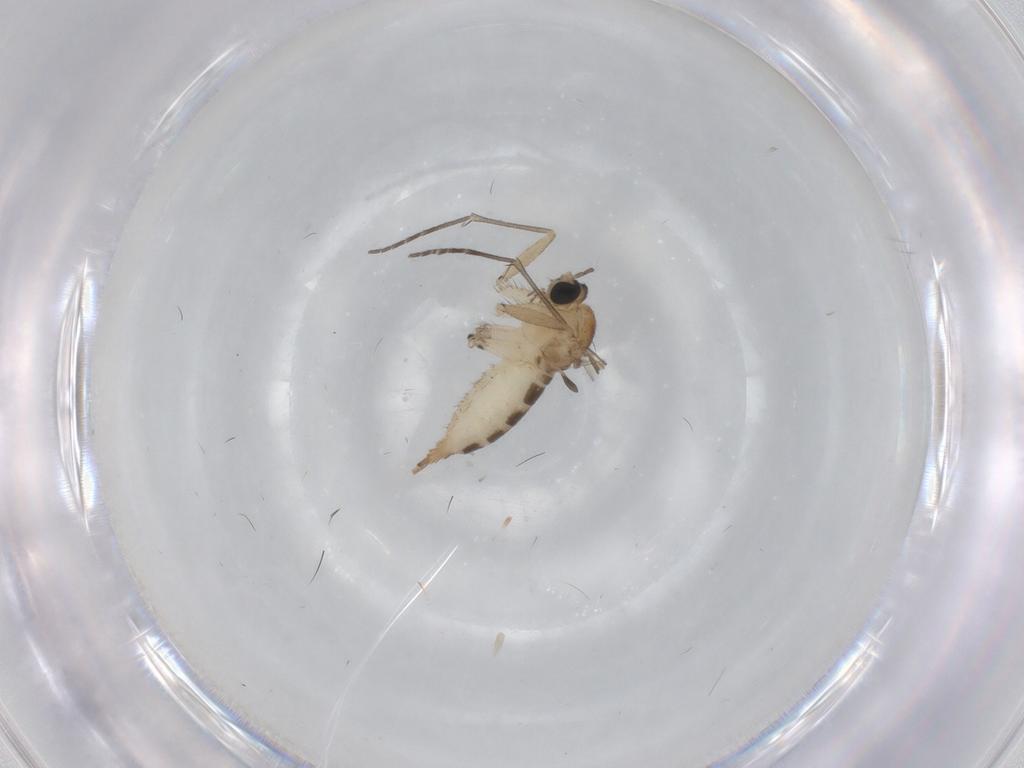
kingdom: Animalia
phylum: Arthropoda
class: Insecta
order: Diptera
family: Sciaridae
